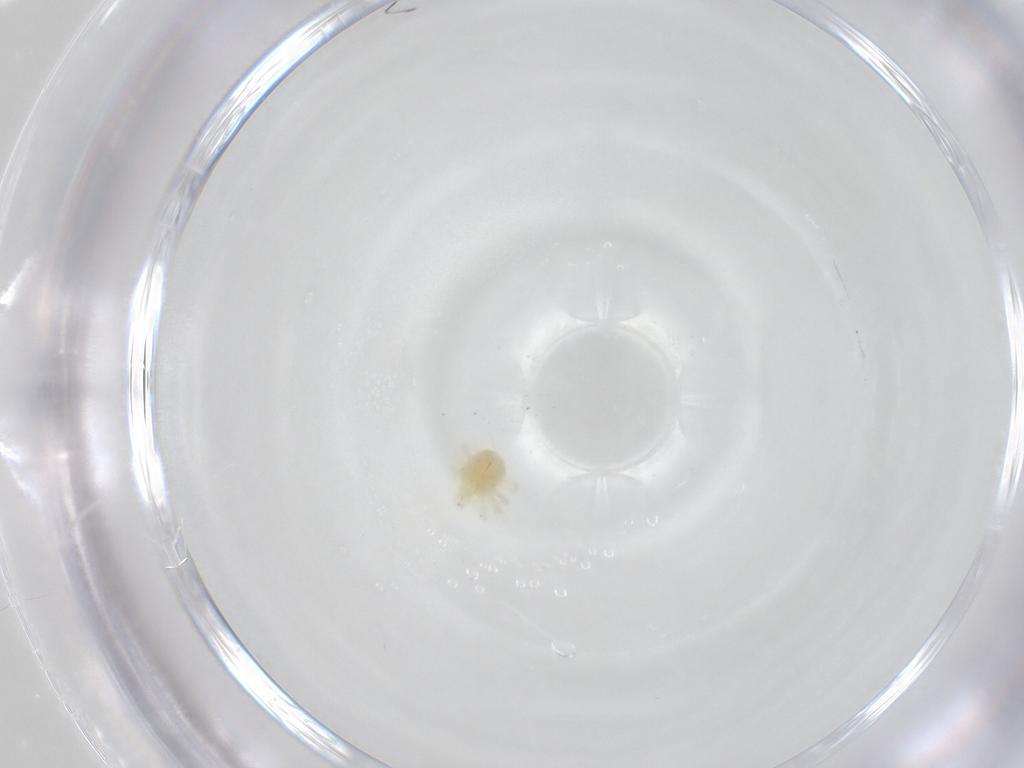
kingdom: Animalia
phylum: Arthropoda
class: Arachnida
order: Trombidiformes
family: Anystidae
